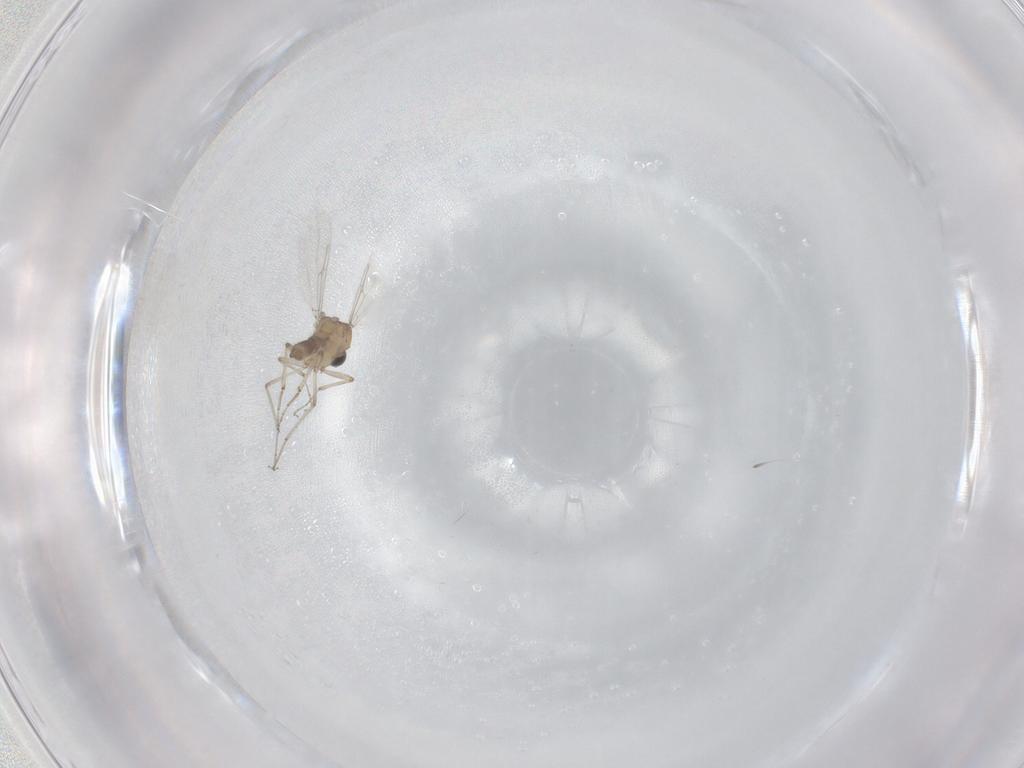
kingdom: Animalia
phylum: Arthropoda
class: Insecta
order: Diptera
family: Ceratopogonidae
